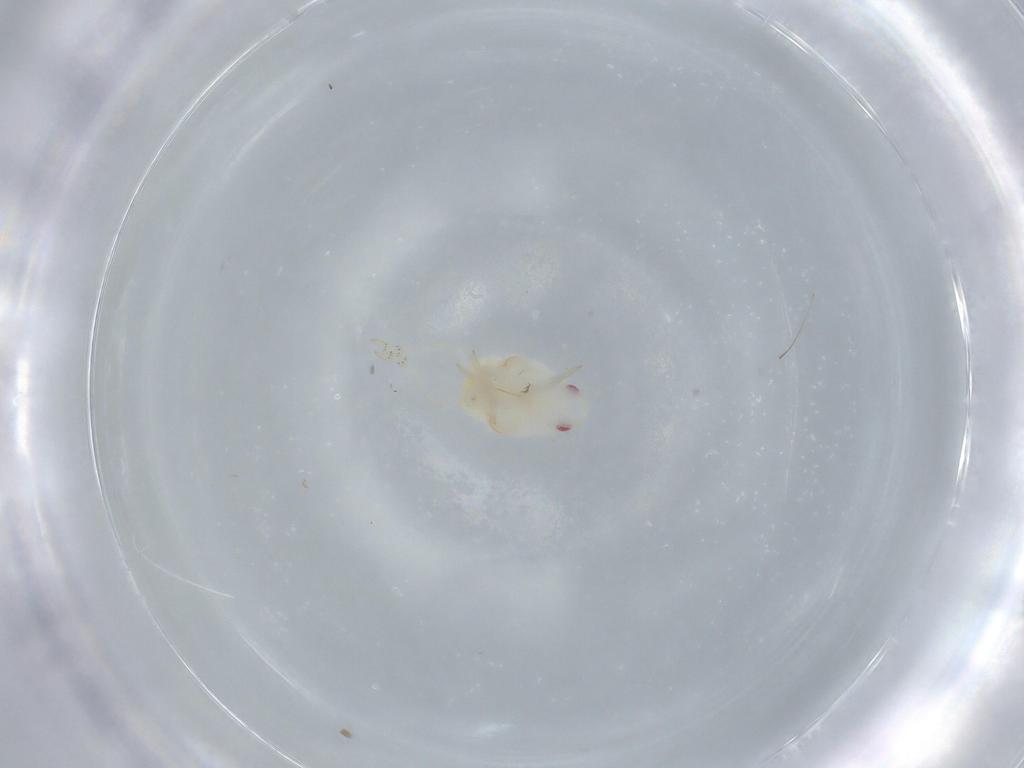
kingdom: Animalia
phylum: Arthropoda
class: Insecta
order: Hemiptera
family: Flatidae
